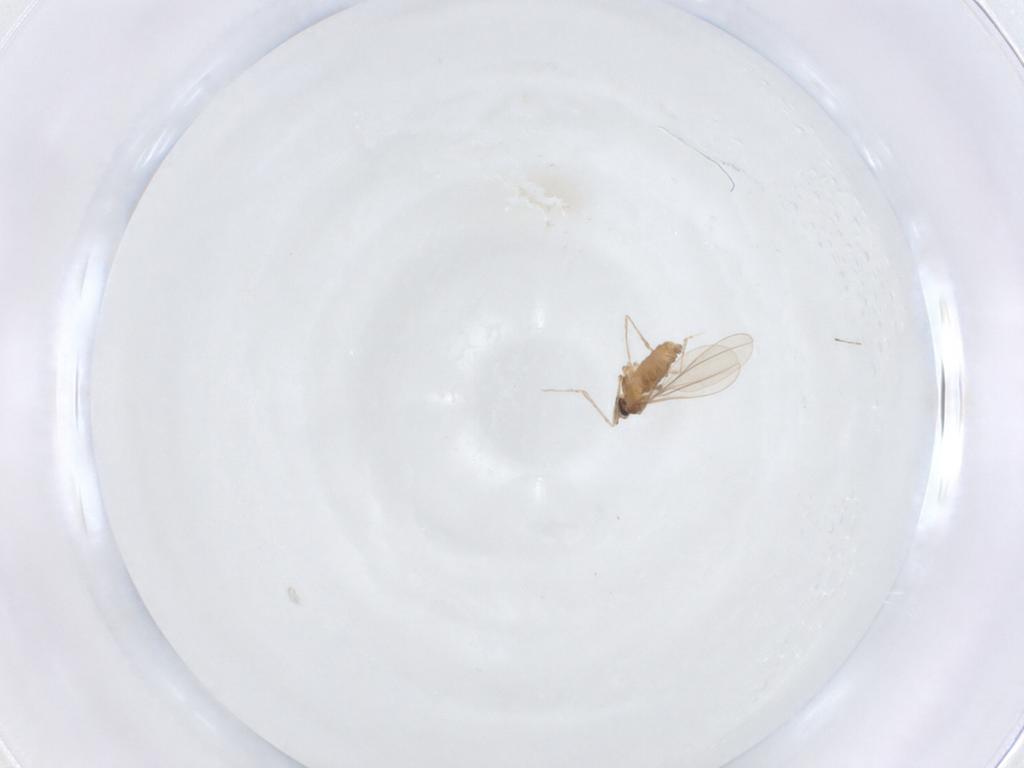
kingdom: Animalia
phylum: Arthropoda
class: Insecta
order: Diptera
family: Cecidomyiidae
